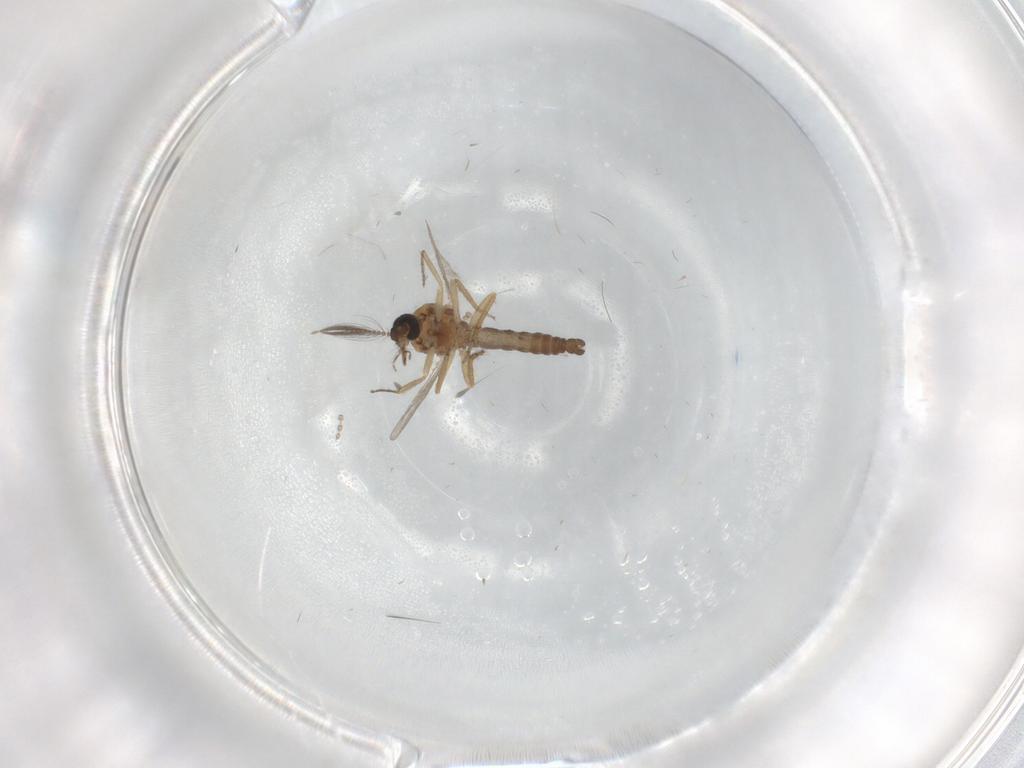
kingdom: Animalia
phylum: Arthropoda
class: Insecta
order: Diptera
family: Ceratopogonidae
